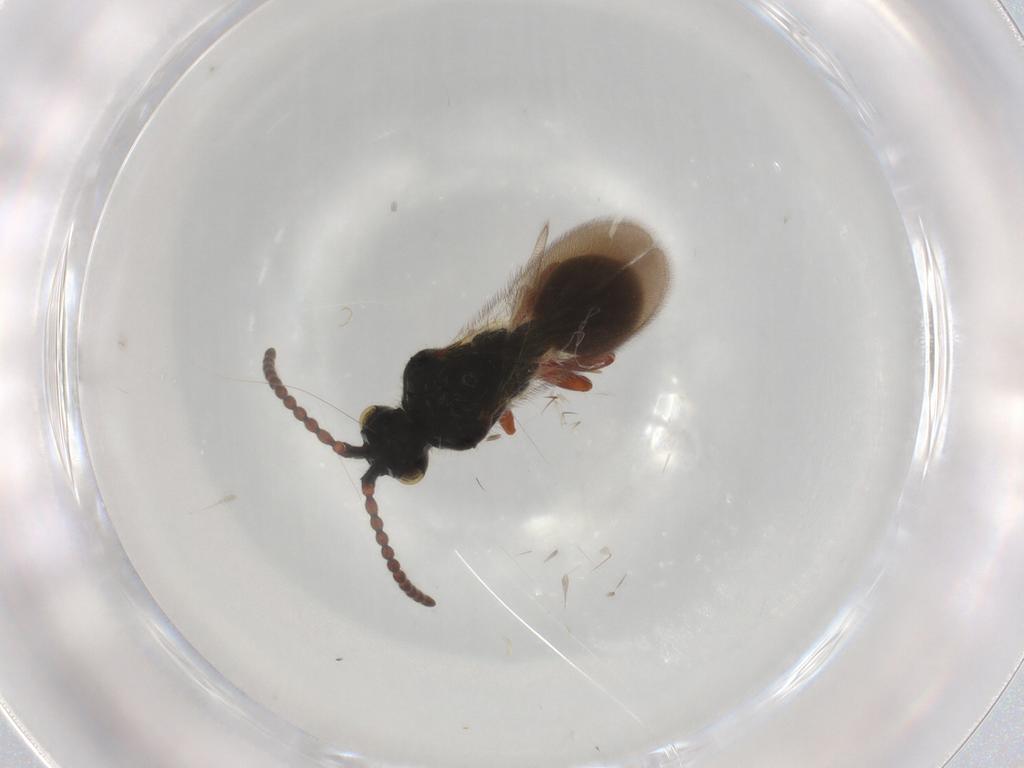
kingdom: Animalia
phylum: Arthropoda
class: Insecta
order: Hymenoptera
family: Diapriidae
